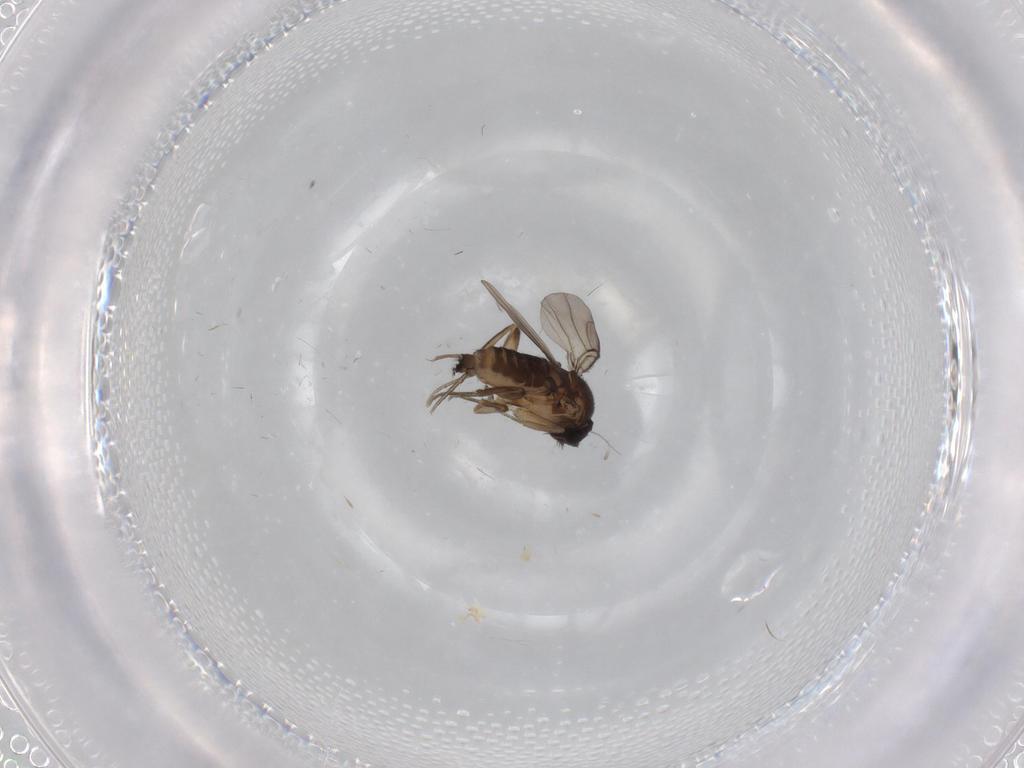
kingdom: Animalia
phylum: Arthropoda
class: Insecta
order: Diptera
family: Phoridae
